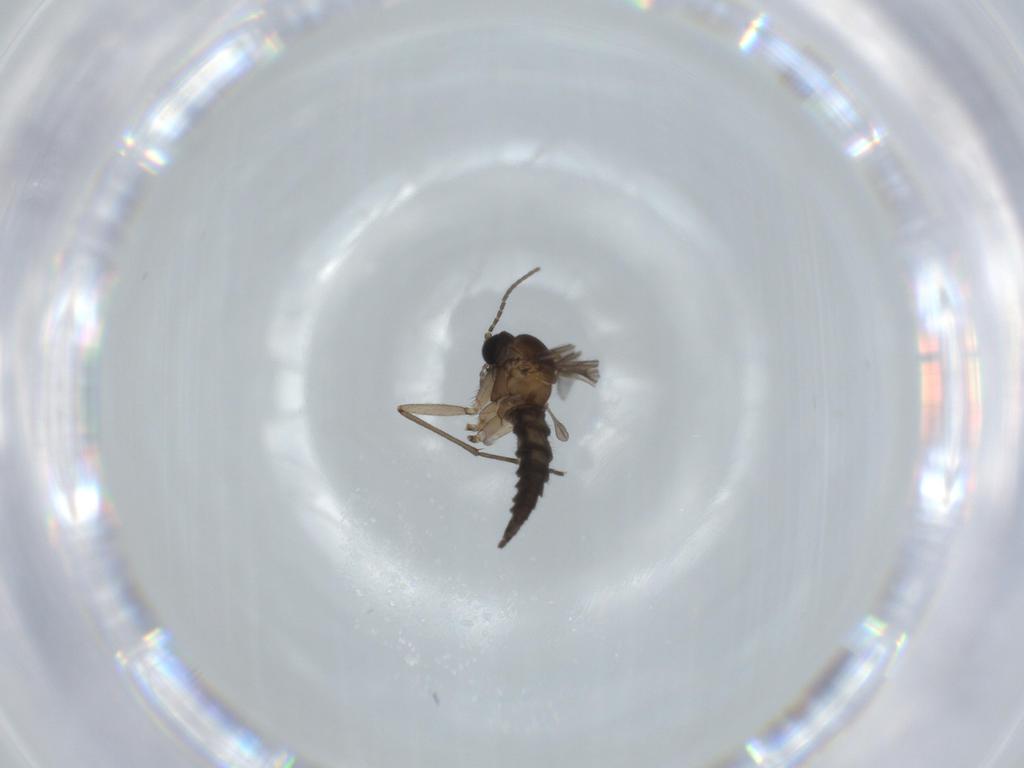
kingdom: Animalia
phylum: Arthropoda
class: Insecta
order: Diptera
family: Sciaridae
